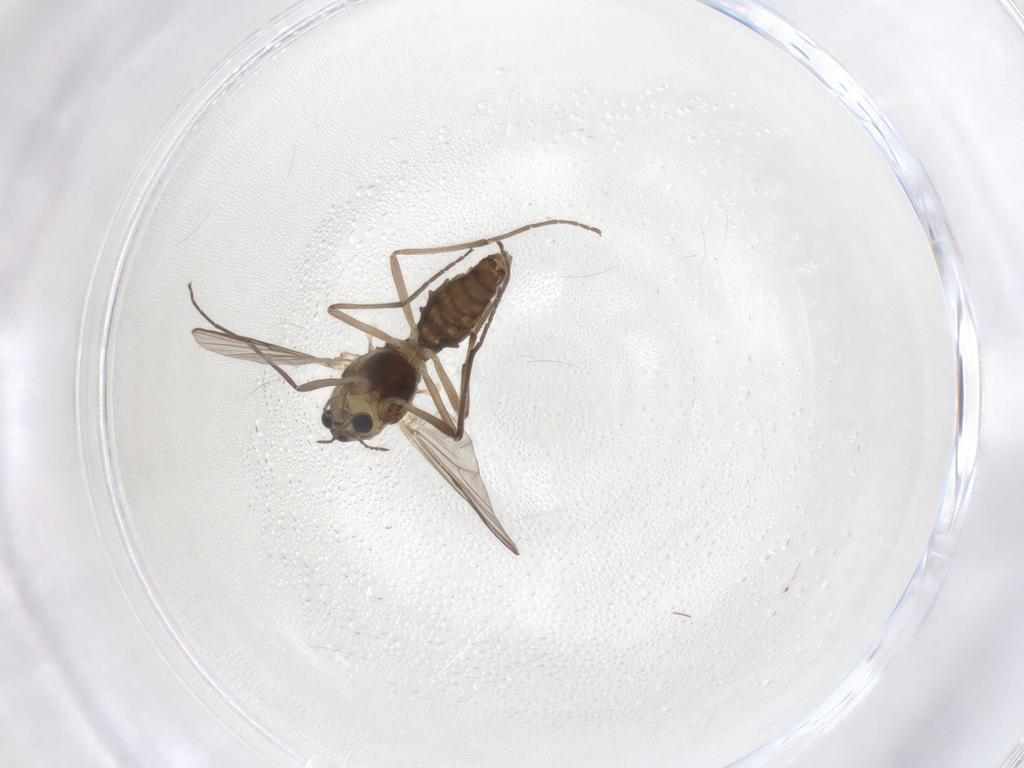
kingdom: Animalia
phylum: Arthropoda
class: Insecta
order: Diptera
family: Chironomidae
